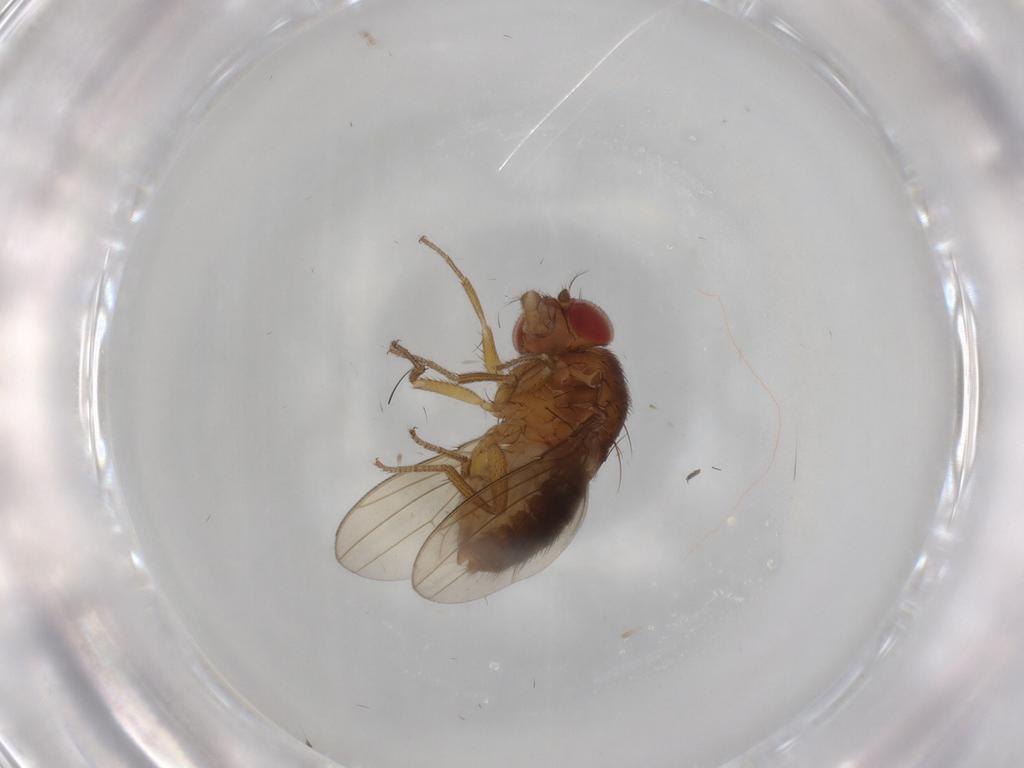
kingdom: Animalia
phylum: Arthropoda
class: Insecta
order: Diptera
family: Drosophilidae
